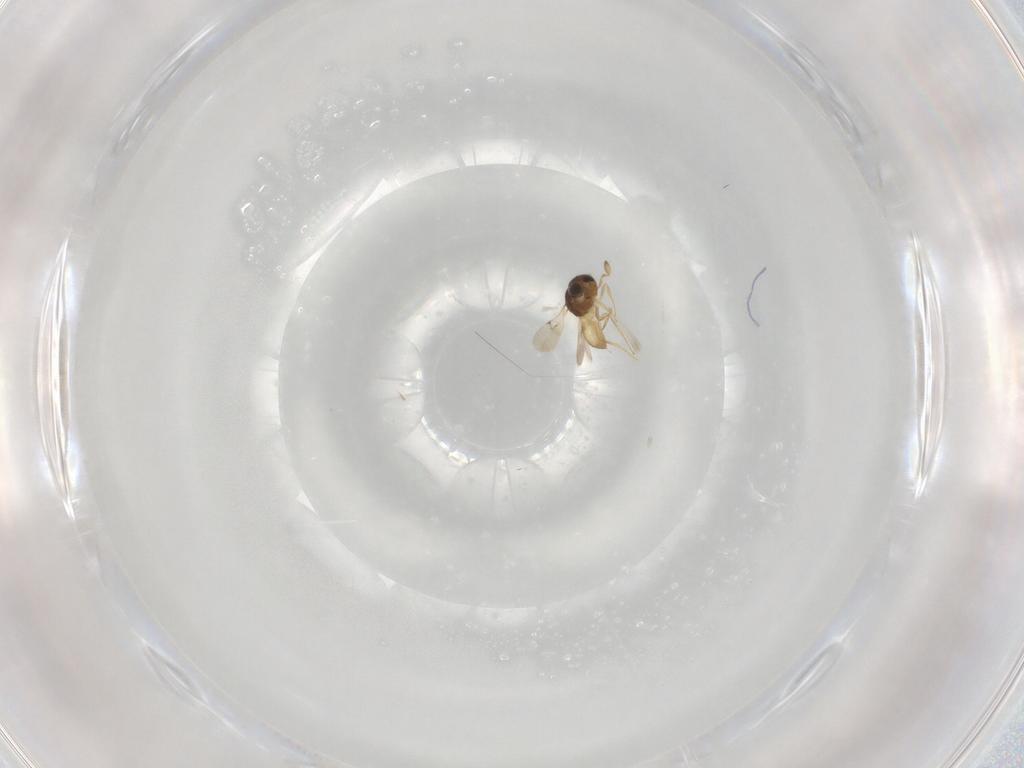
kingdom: Animalia
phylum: Arthropoda
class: Insecta
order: Hymenoptera
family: Scelionidae
